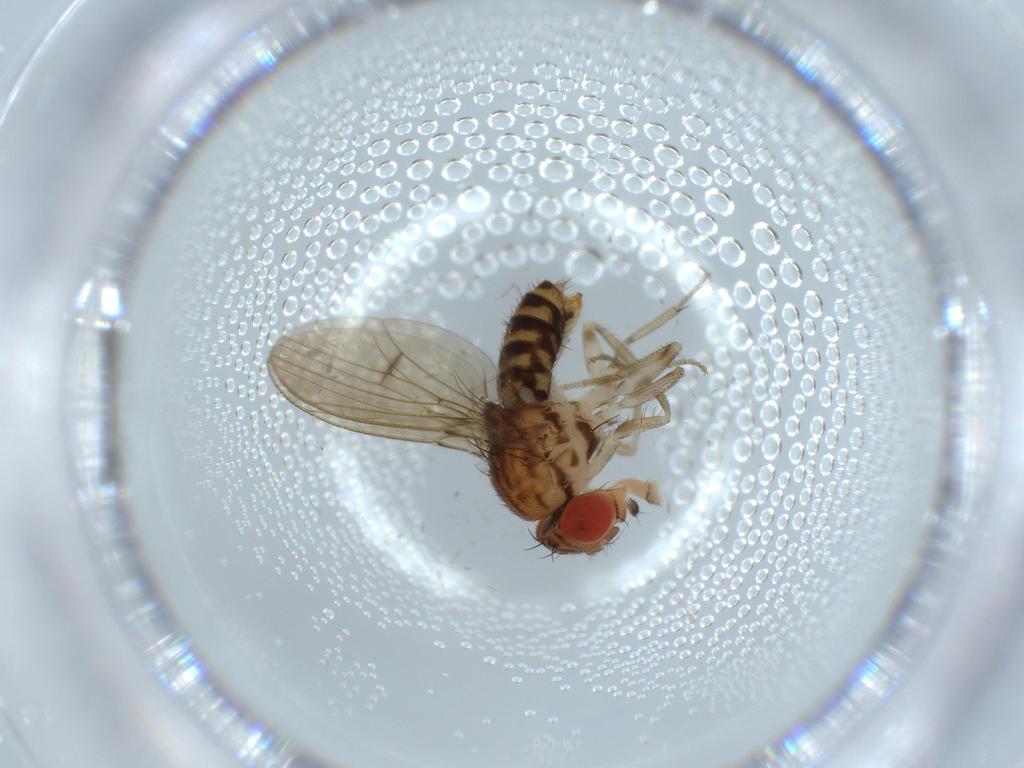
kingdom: Animalia
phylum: Arthropoda
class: Insecta
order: Diptera
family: Drosophilidae
